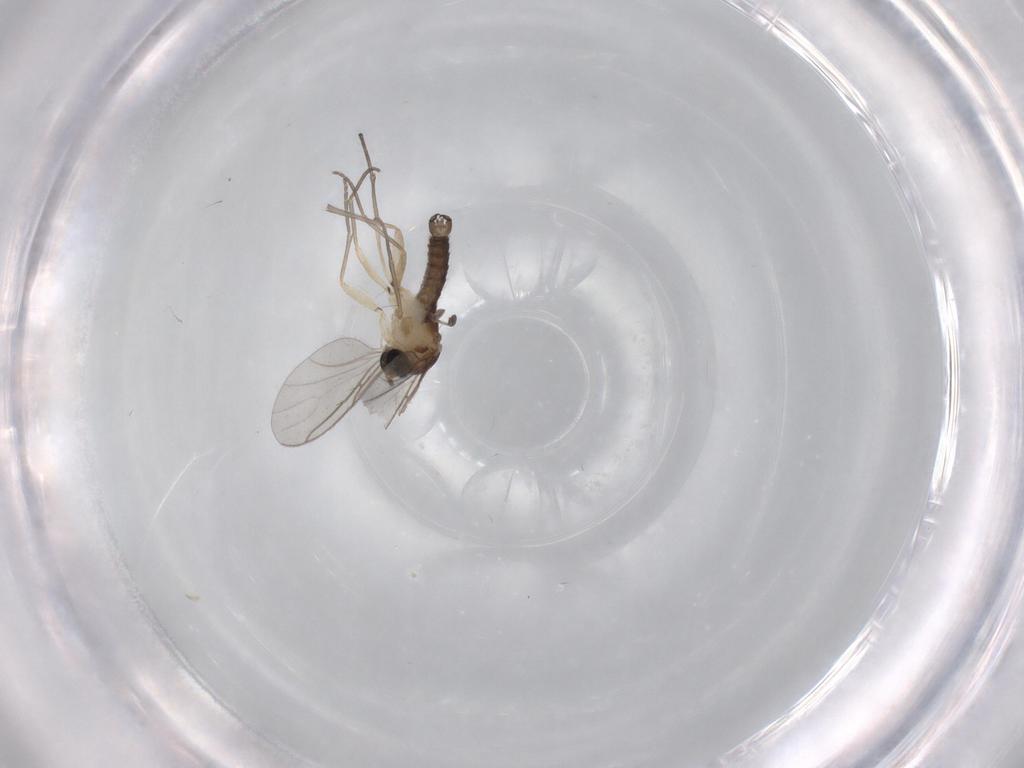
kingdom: Animalia
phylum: Arthropoda
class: Insecta
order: Diptera
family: Sciaridae
